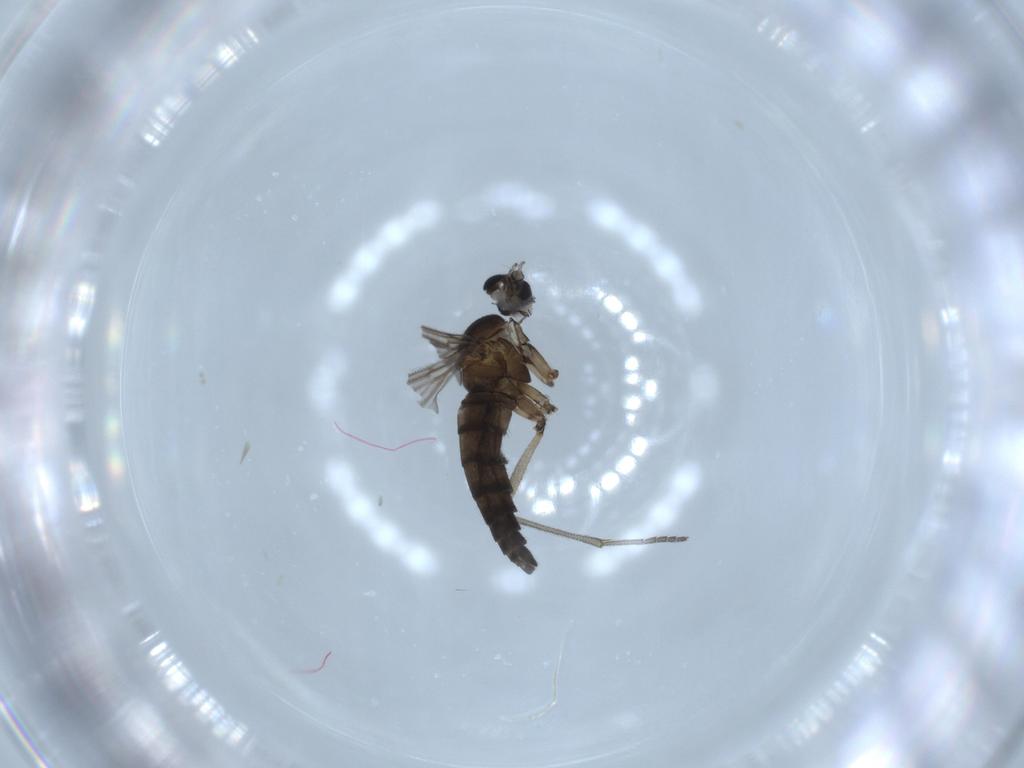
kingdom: Animalia
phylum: Arthropoda
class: Insecta
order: Diptera
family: Sciaridae
